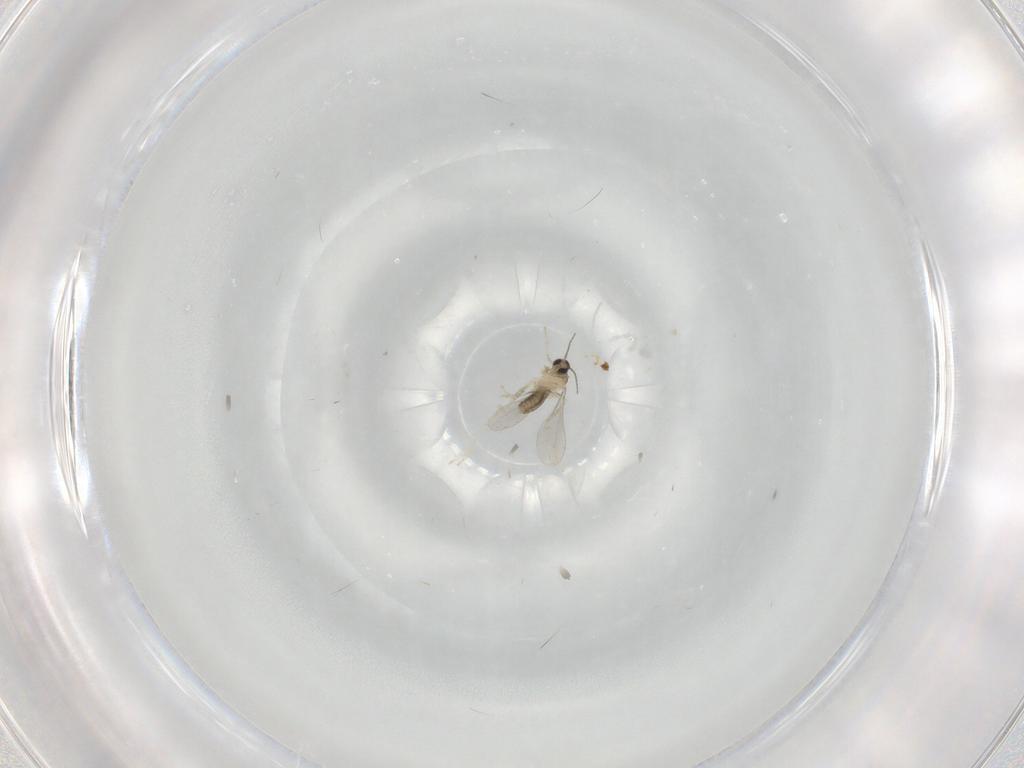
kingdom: Animalia
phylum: Arthropoda
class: Insecta
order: Diptera
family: Cecidomyiidae
